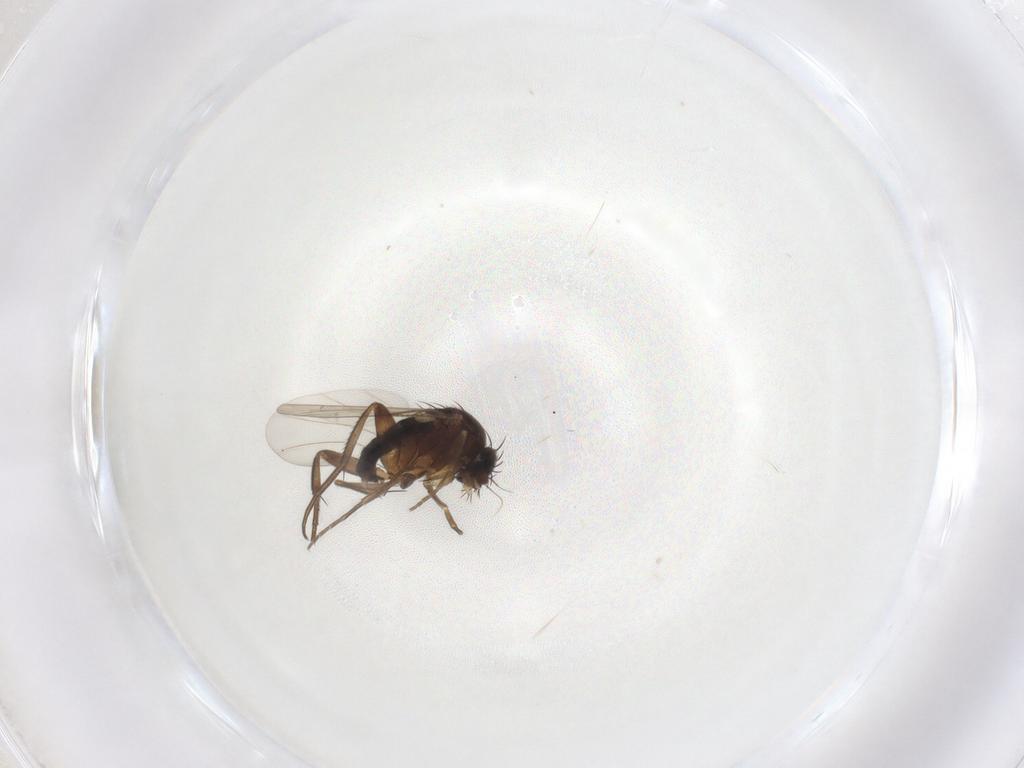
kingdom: Animalia
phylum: Arthropoda
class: Insecta
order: Diptera
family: Phoridae
